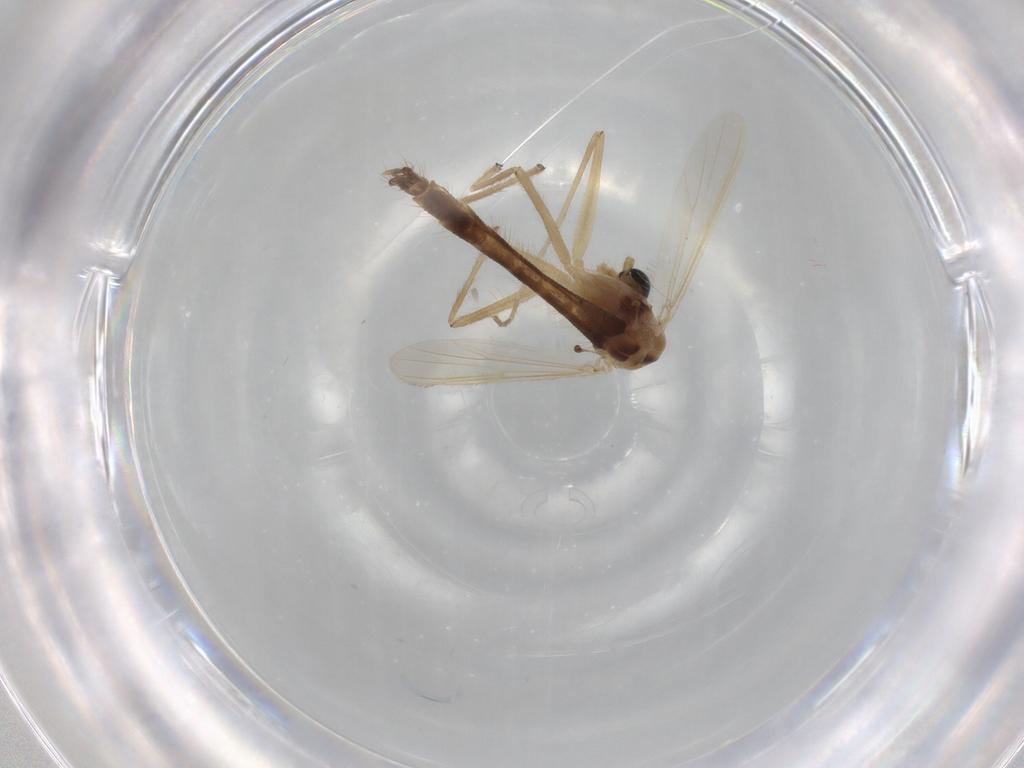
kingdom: Animalia
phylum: Arthropoda
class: Insecta
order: Diptera
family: Chironomidae
